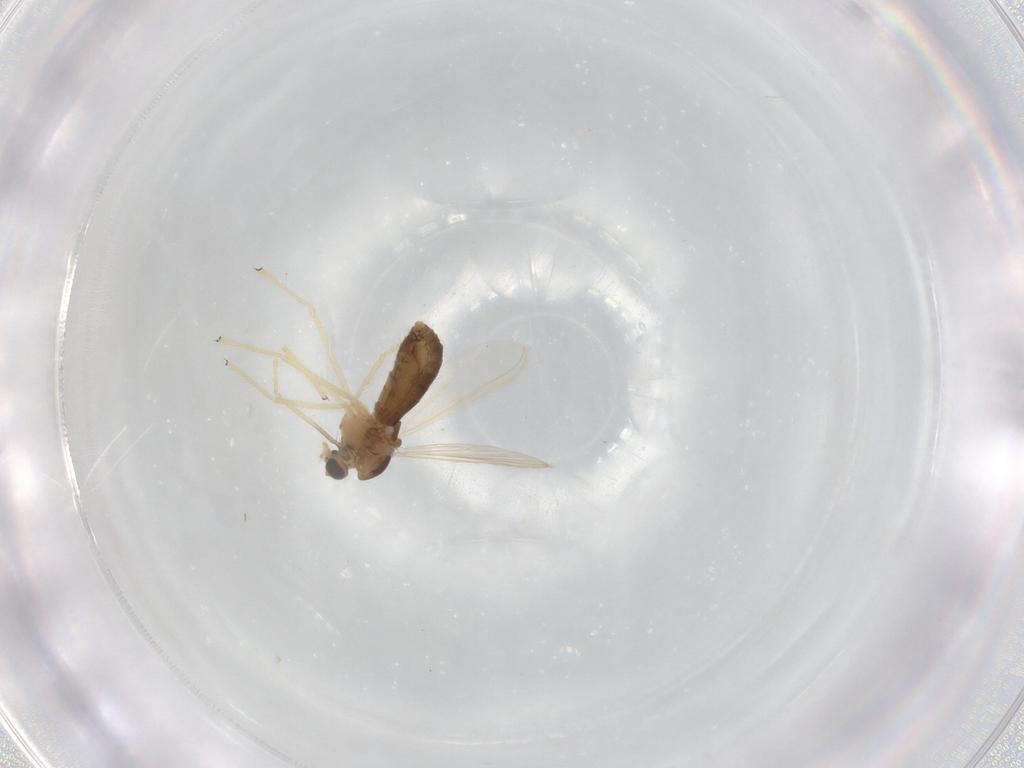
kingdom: Animalia
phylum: Arthropoda
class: Insecta
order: Diptera
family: Chironomidae
